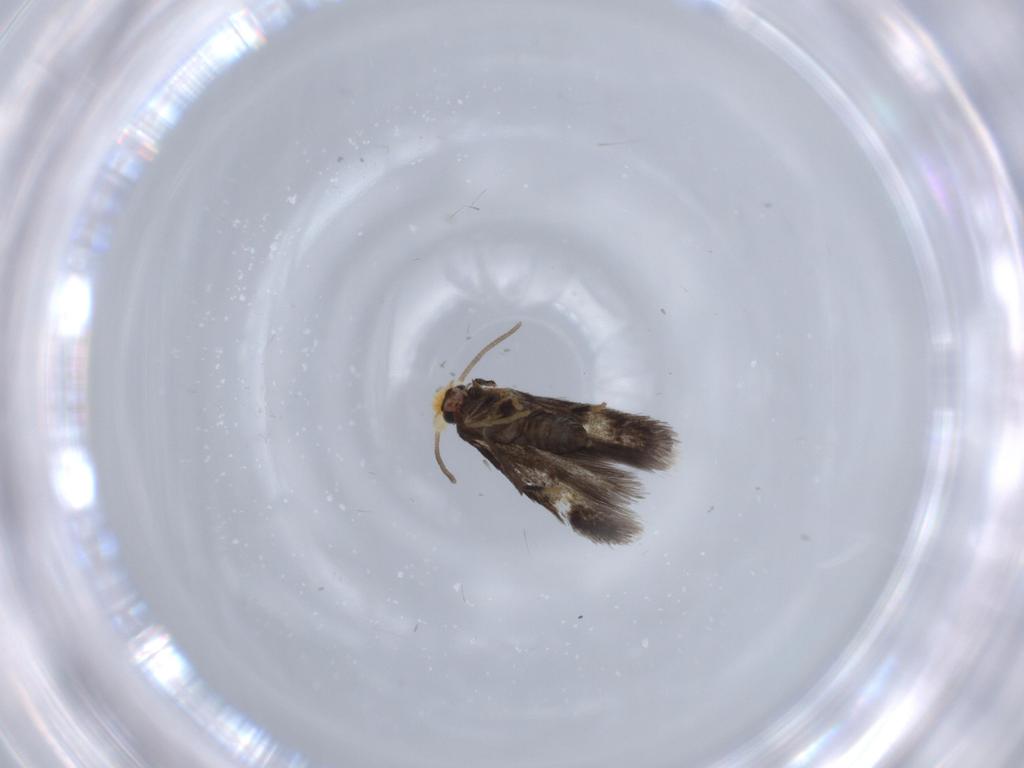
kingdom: Animalia
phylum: Arthropoda
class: Insecta
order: Lepidoptera
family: Nepticulidae
